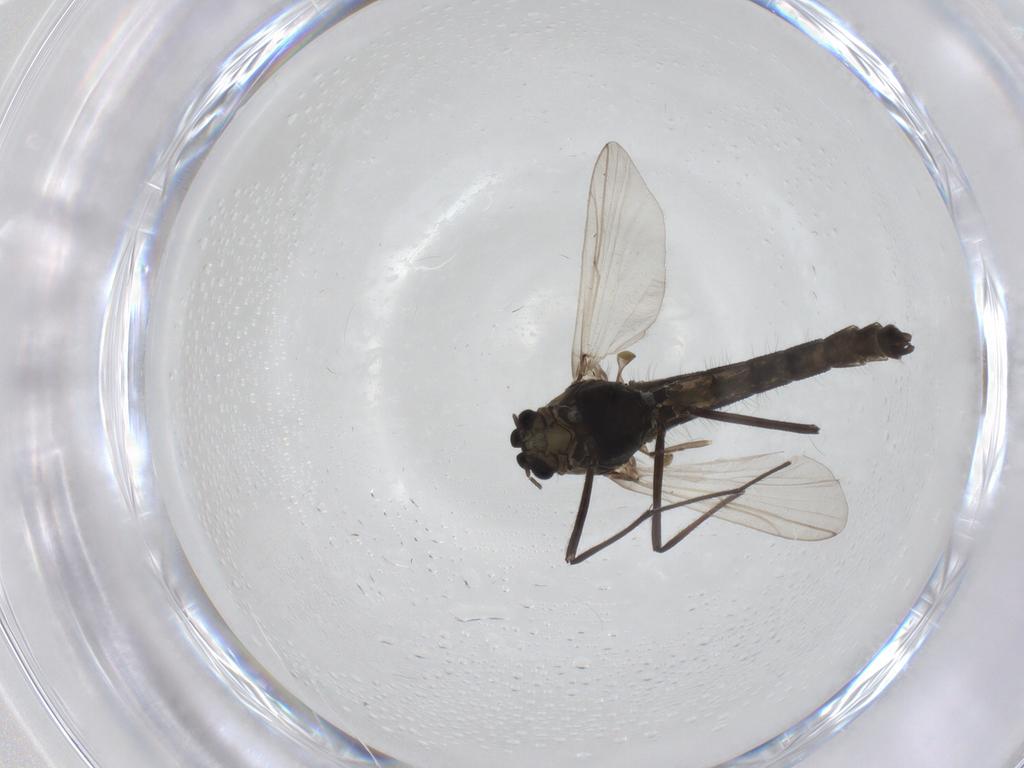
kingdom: Animalia
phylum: Arthropoda
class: Insecta
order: Diptera
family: Chironomidae
